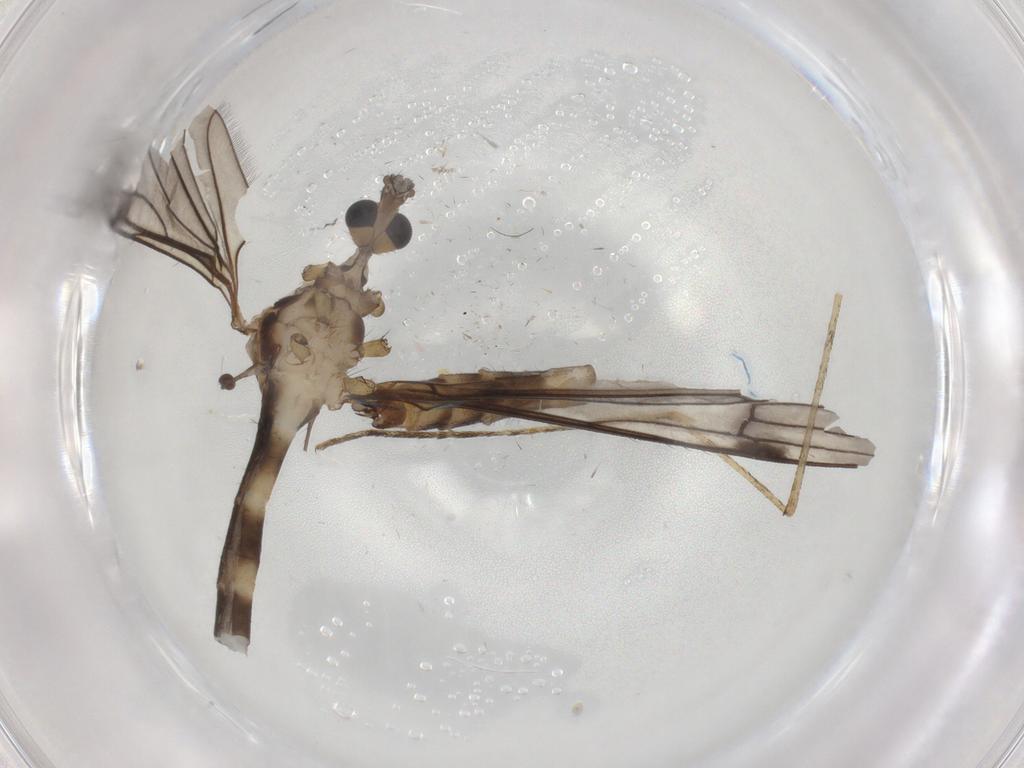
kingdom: Animalia
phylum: Arthropoda
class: Insecta
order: Diptera
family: Limoniidae
